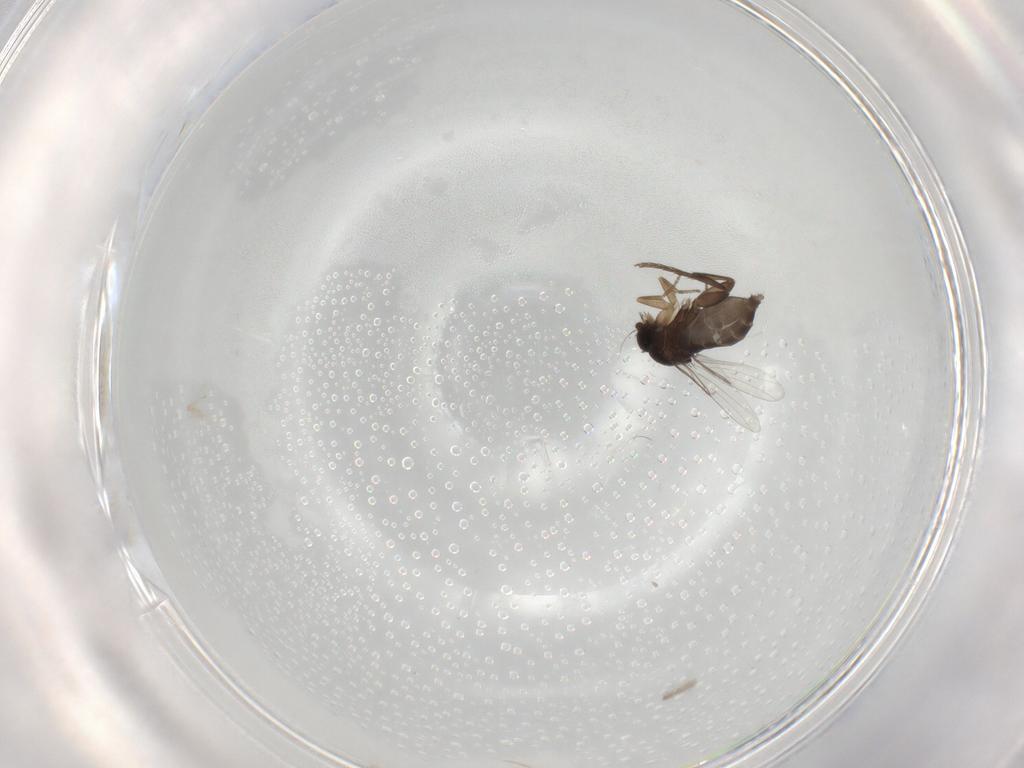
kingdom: Animalia
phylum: Arthropoda
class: Insecta
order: Diptera
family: Phoridae
